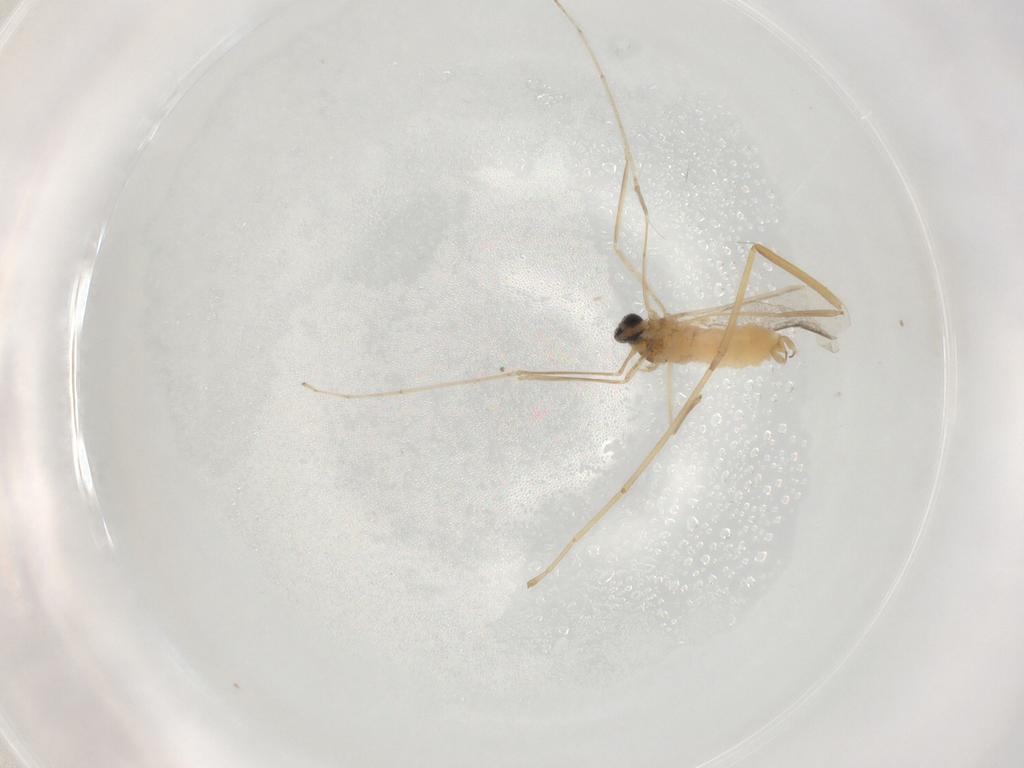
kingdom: Animalia
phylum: Arthropoda
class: Insecta
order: Diptera
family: Cecidomyiidae
